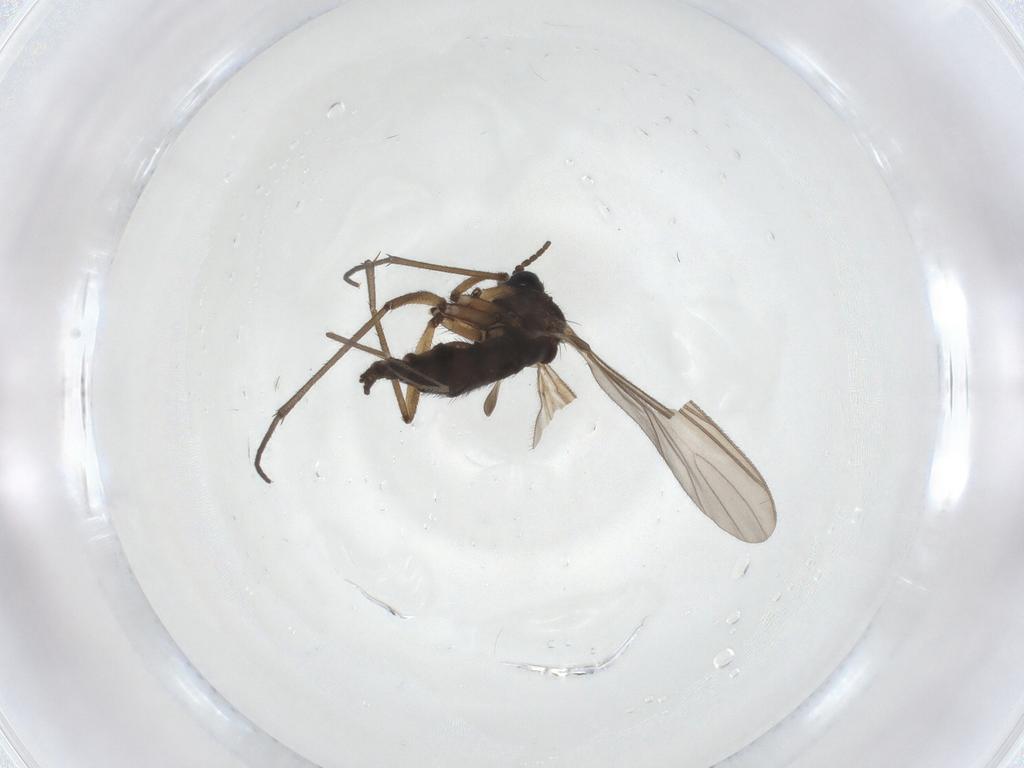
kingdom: Animalia
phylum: Arthropoda
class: Insecta
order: Diptera
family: Sciaridae
